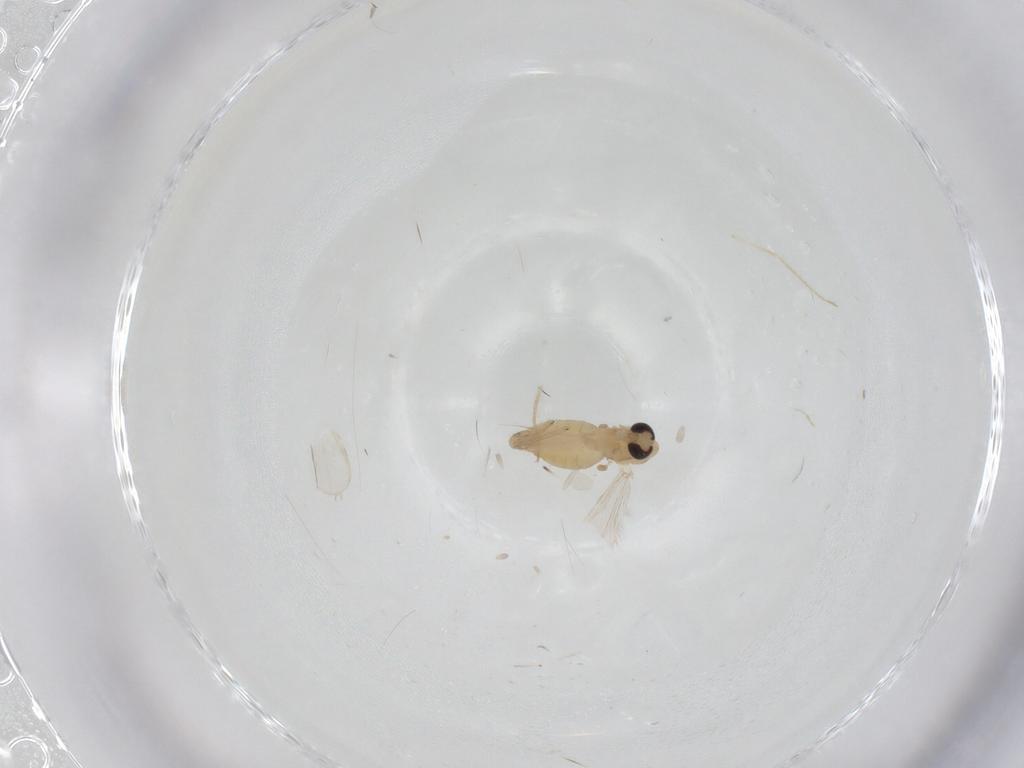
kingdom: Animalia
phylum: Arthropoda
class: Insecta
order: Diptera
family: Chironomidae
